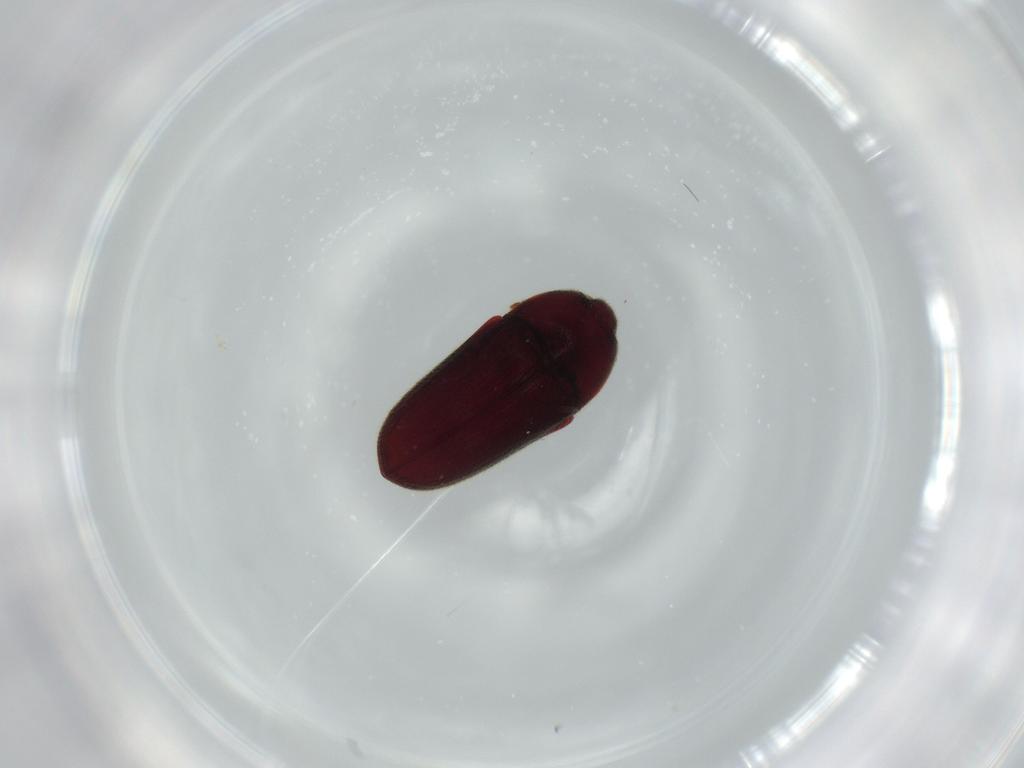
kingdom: Animalia
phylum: Arthropoda
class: Insecta
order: Coleoptera
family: Throscidae
